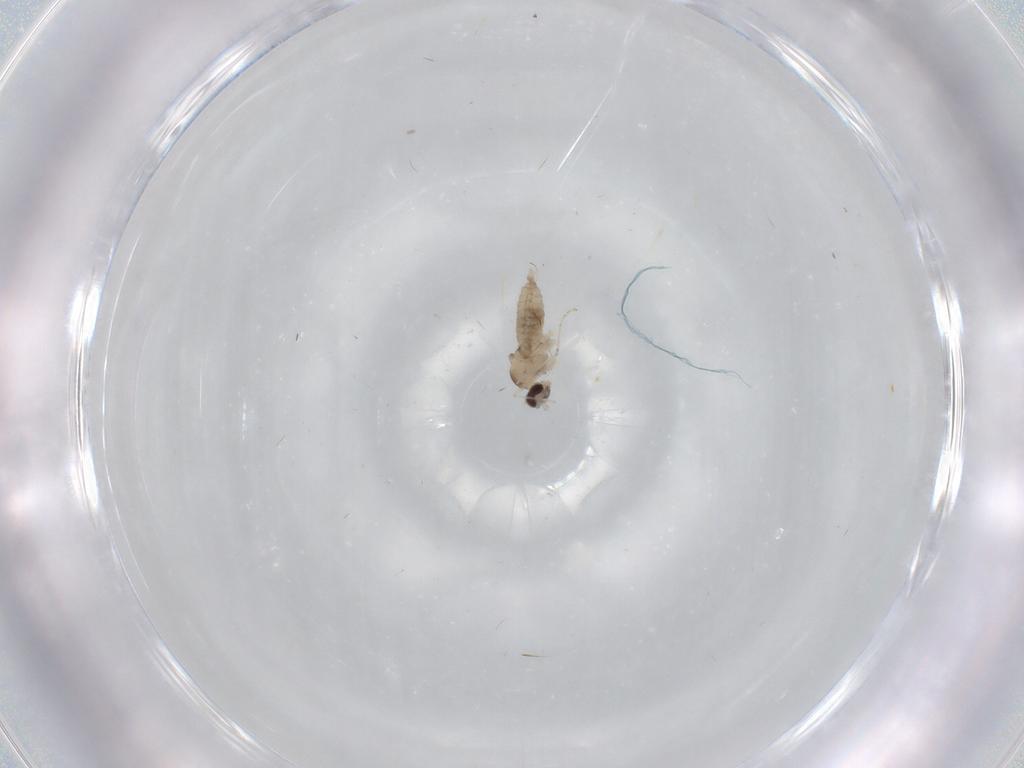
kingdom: Animalia
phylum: Arthropoda
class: Insecta
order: Diptera
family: Cecidomyiidae
